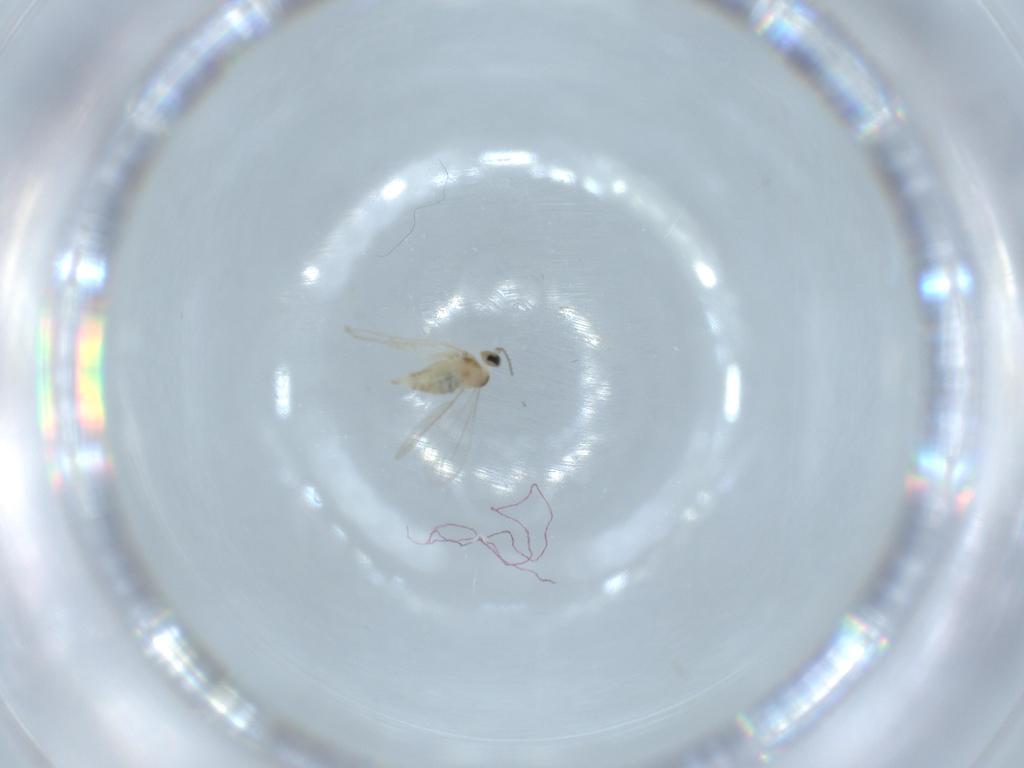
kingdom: Animalia
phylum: Arthropoda
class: Insecta
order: Diptera
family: Cecidomyiidae
